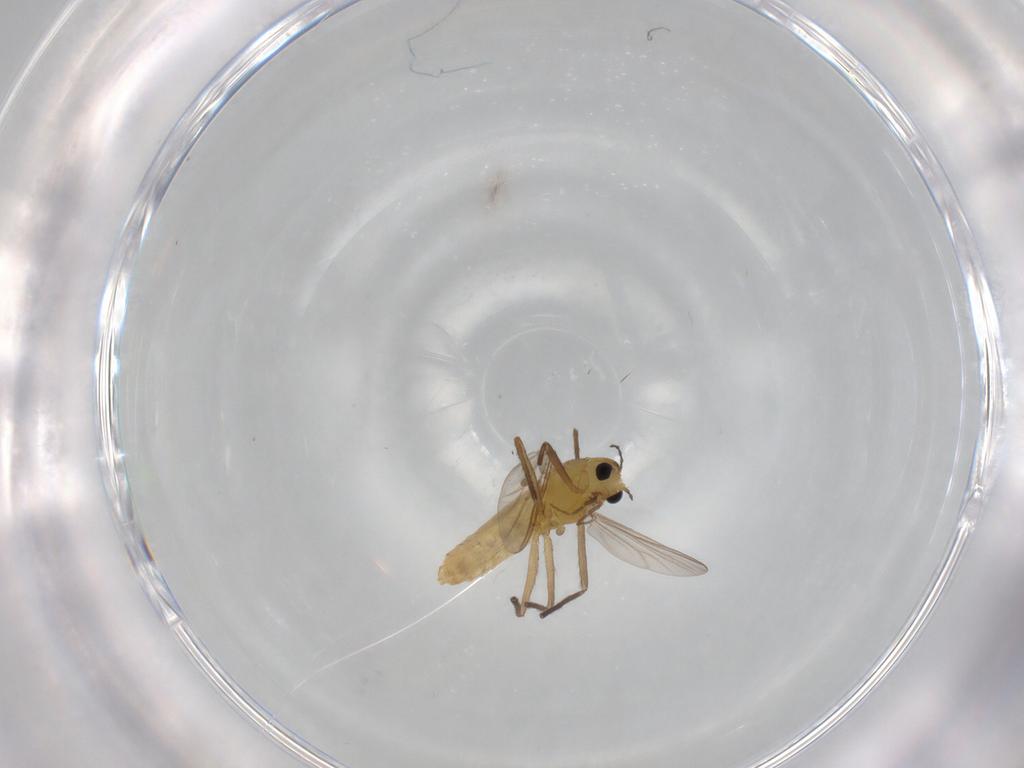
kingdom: Animalia
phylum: Arthropoda
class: Insecta
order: Diptera
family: Chironomidae
